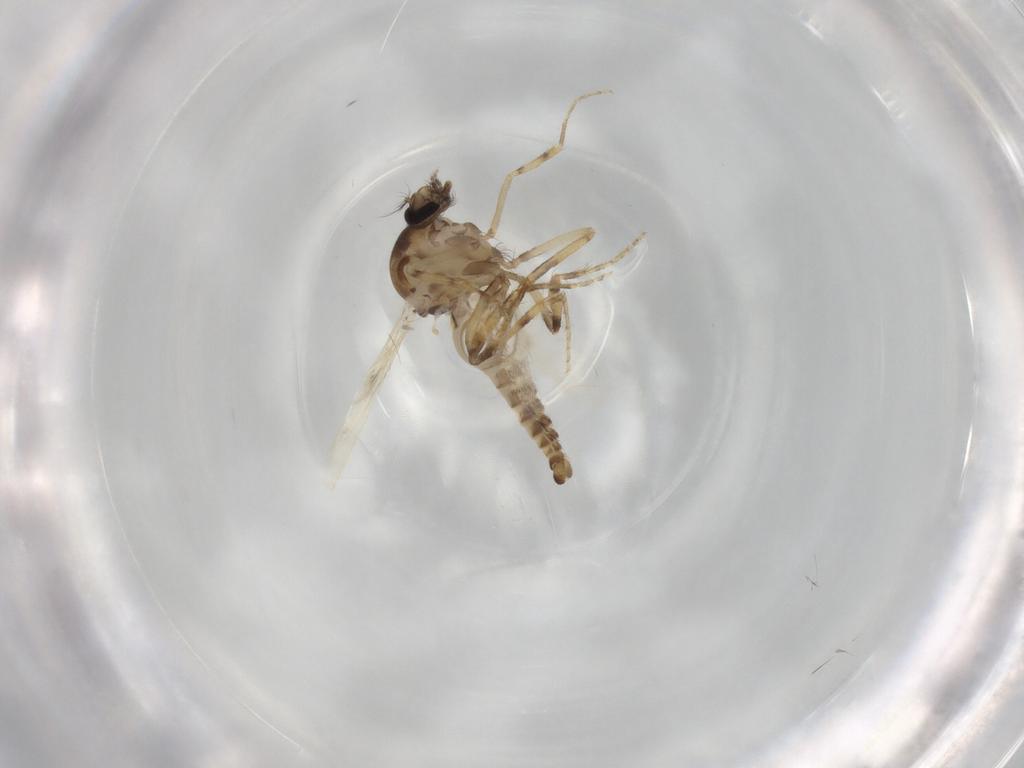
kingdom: Animalia
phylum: Arthropoda
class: Insecta
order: Diptera
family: Ceratopogonidae
